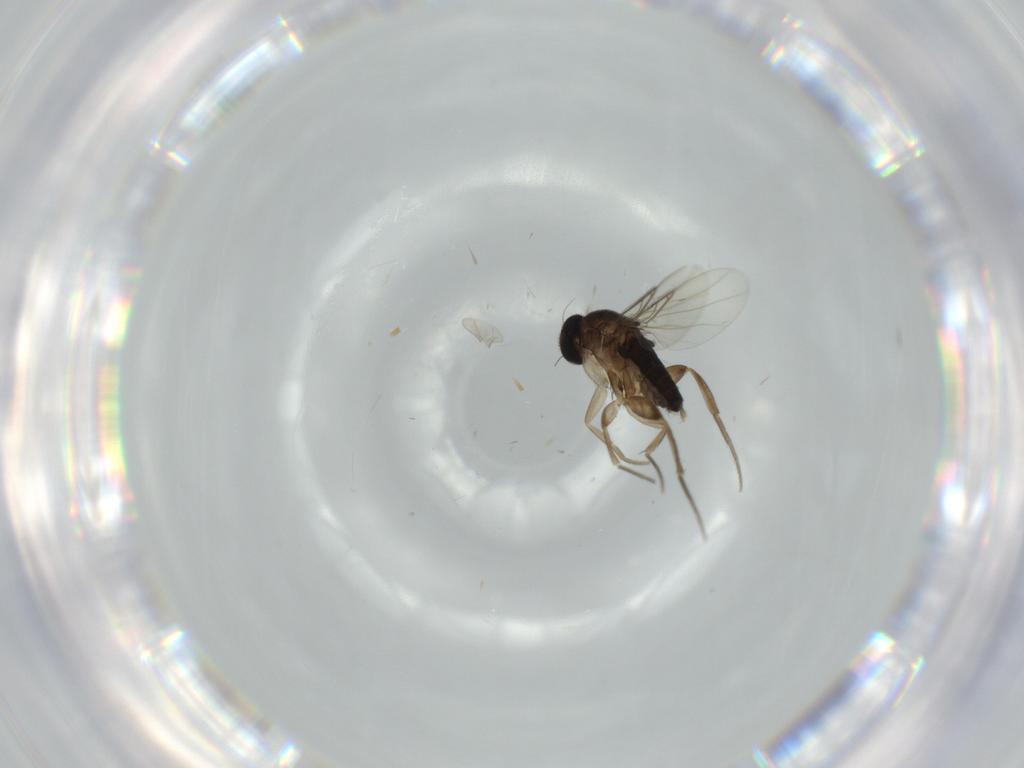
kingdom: Animalia
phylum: Arthropoda
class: Insecta
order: Diptera
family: Phoridae
